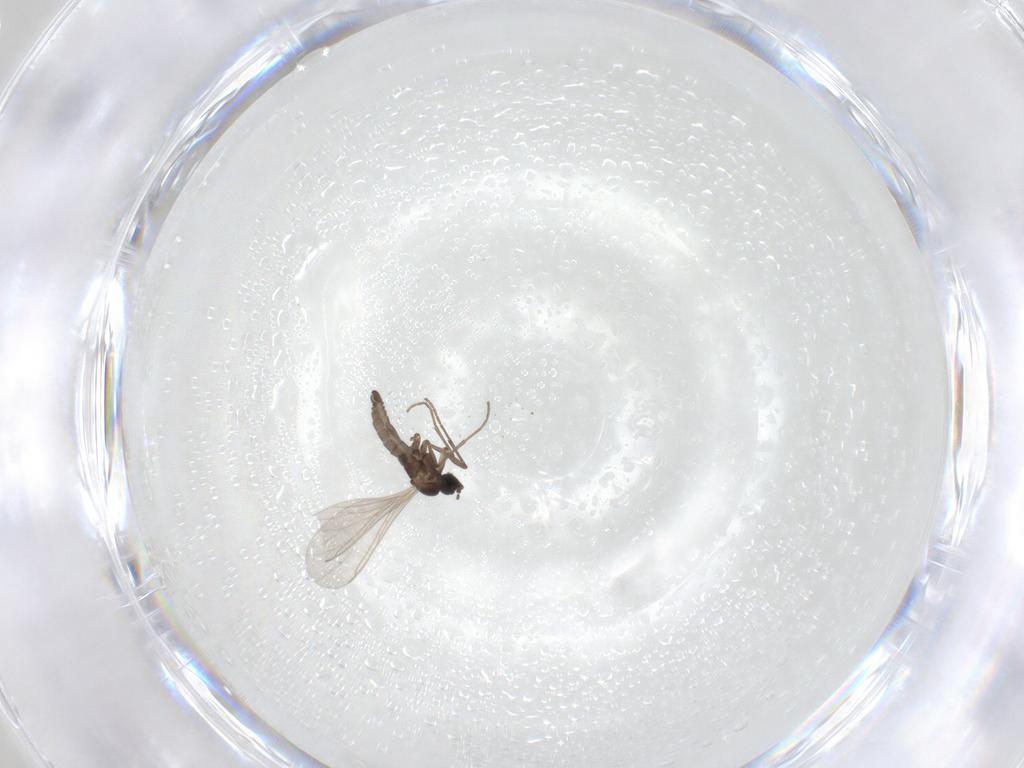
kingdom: Animalia
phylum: Arthropoda
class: Insecta
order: Diptera
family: Sciaridae
